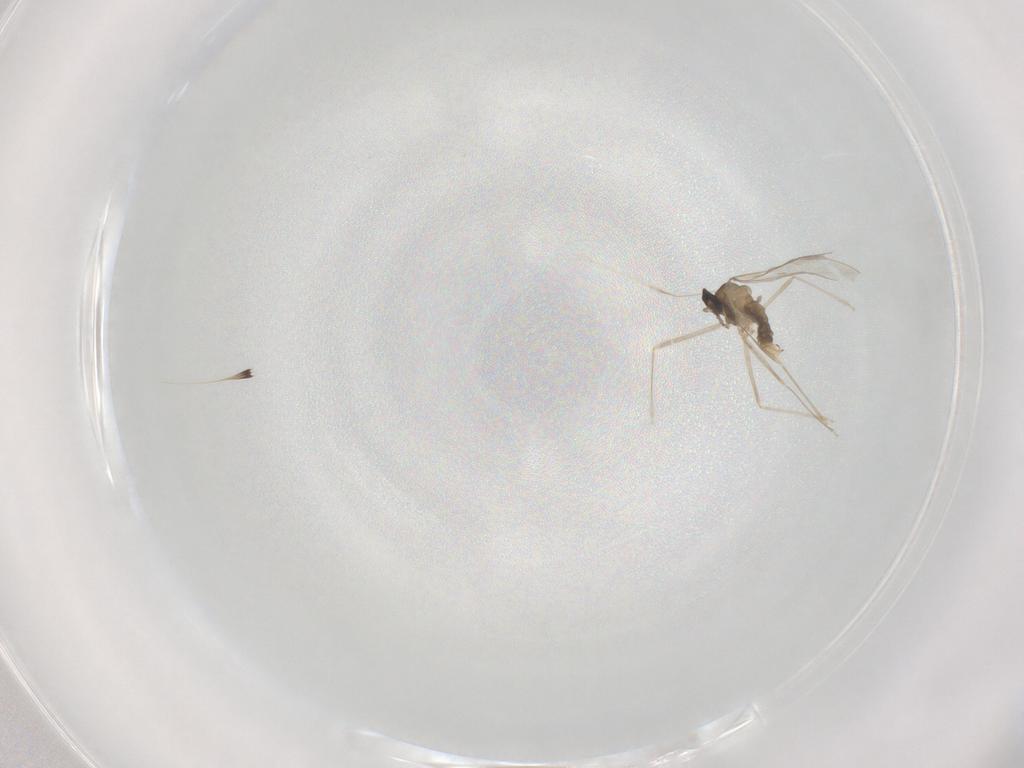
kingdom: Animalia
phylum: Arthropoda
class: Insecta
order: Diptera
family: Cecidomyiidae
